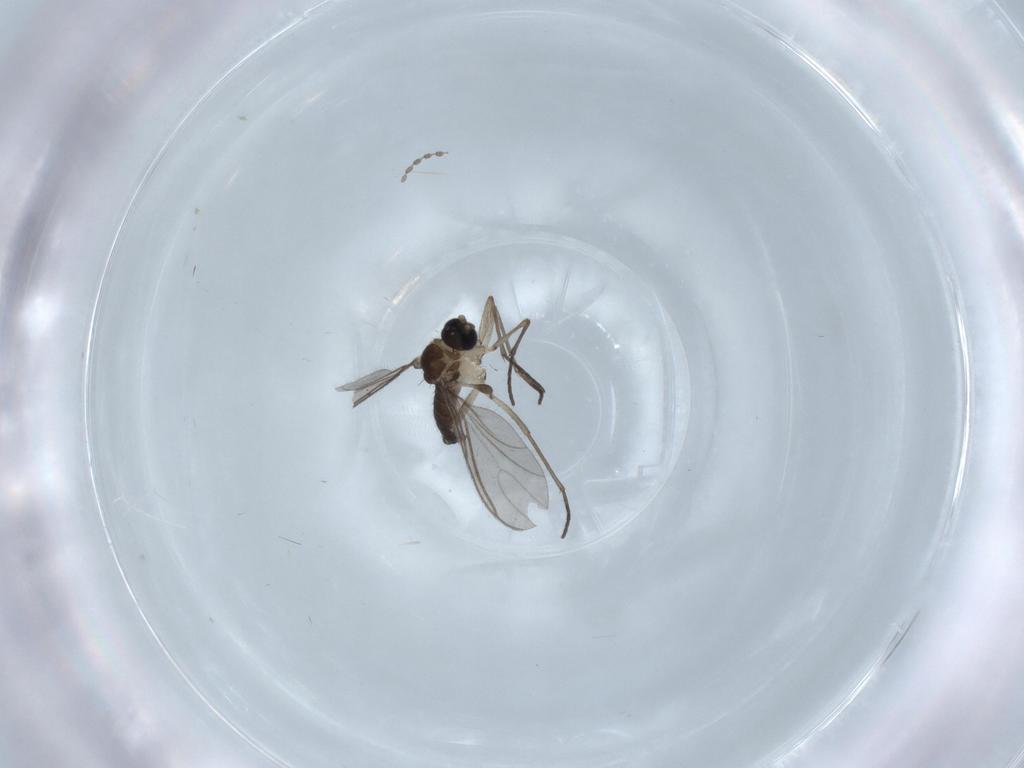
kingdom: Animalia
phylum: Arthropoda
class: Insecta
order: Diptera
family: Sciaridae
